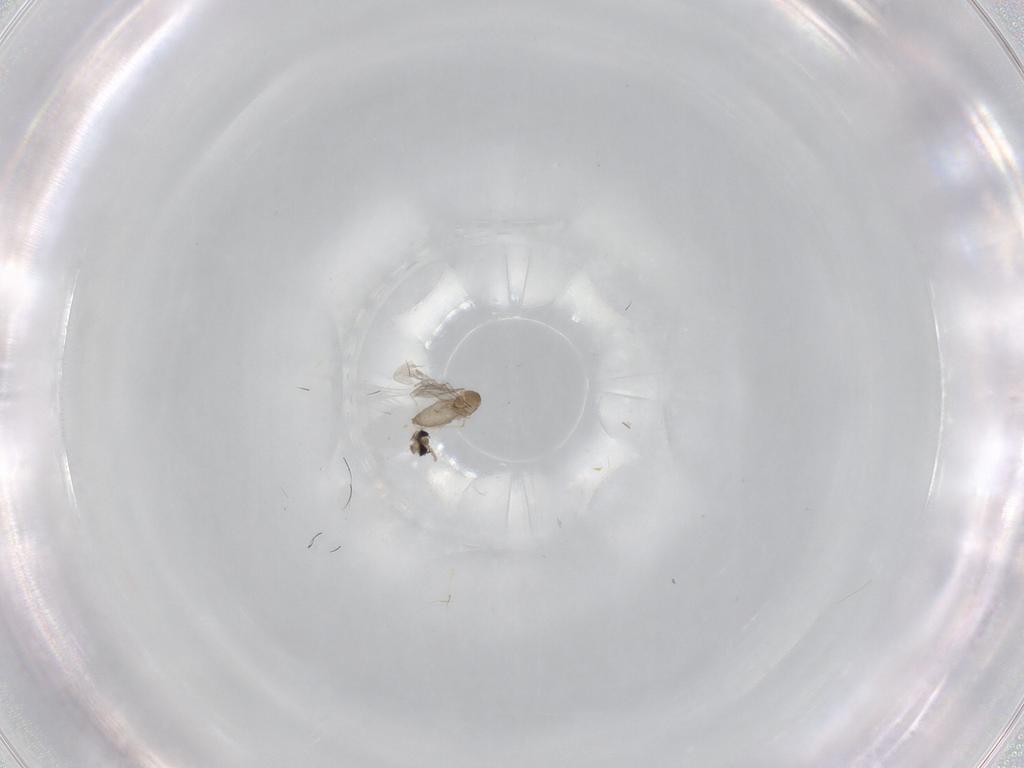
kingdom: Animalia
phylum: Arthropoda
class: Insecta
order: Diptera
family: Cecidomyiidae
